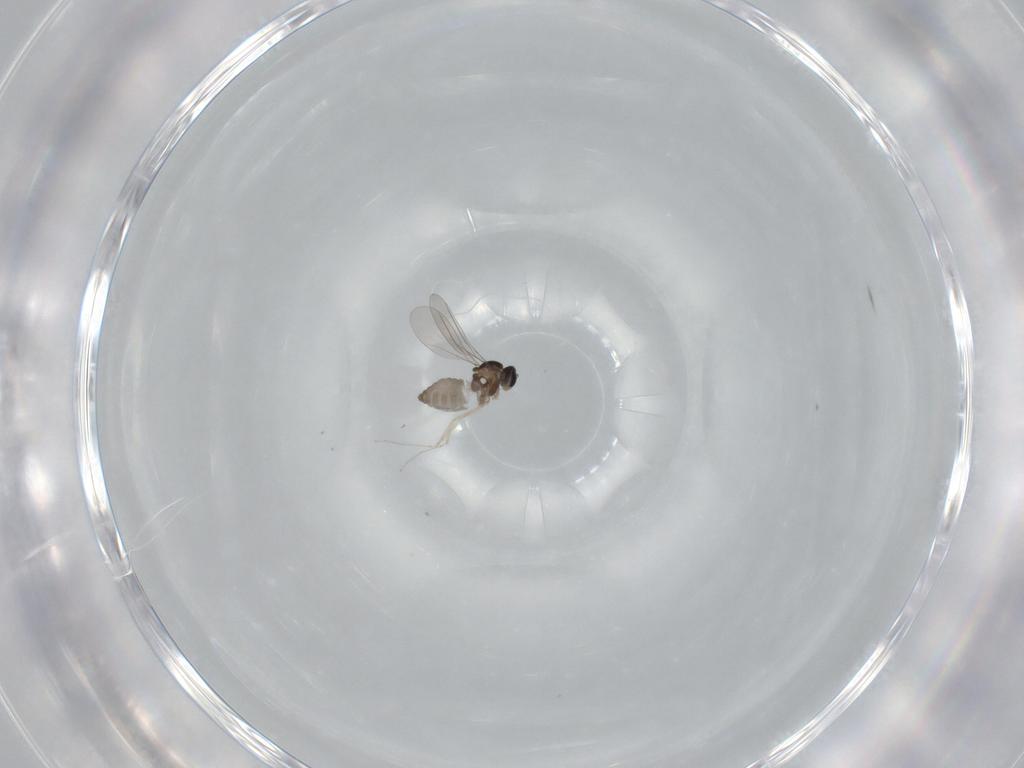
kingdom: Animalia
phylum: Arthropoda
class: Insecta
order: Diptera
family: Cecidomyiidae
